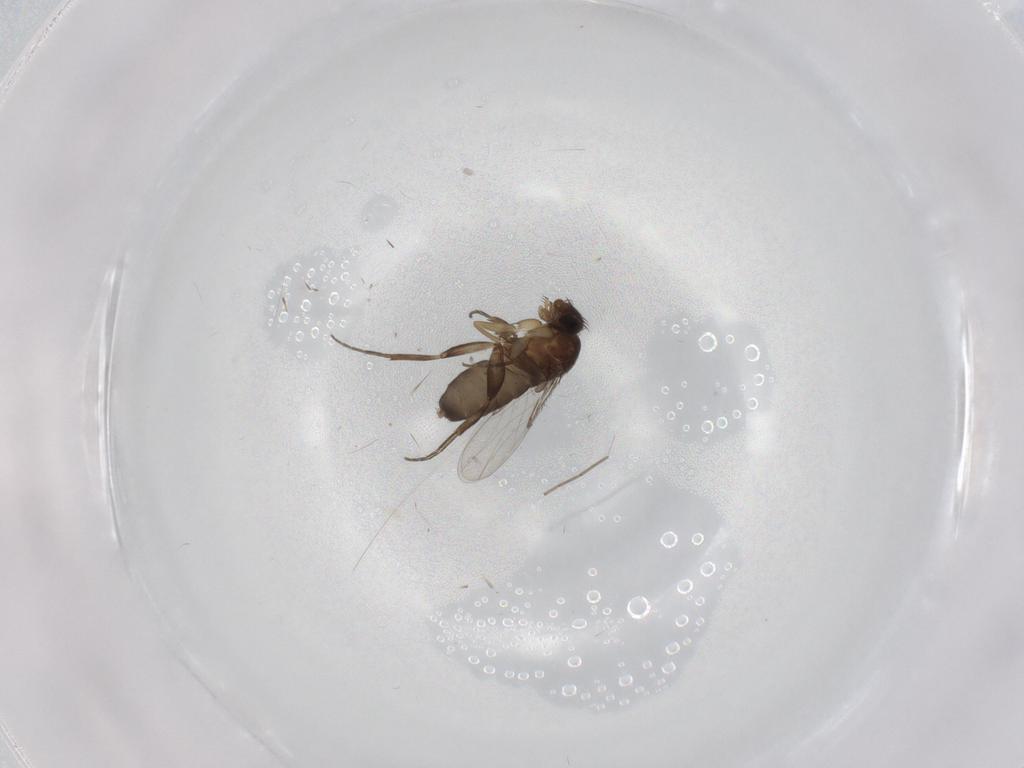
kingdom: Animalia
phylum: Arthropoda
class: Insecta
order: Diptera
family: Phoridae
